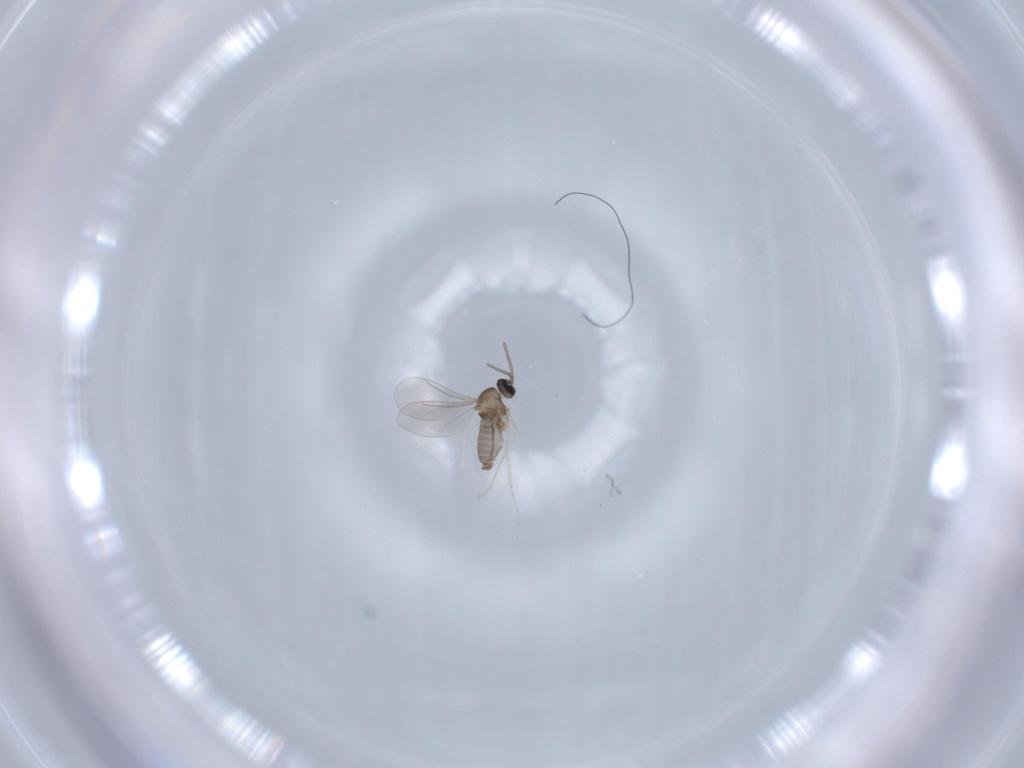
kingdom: Animalia
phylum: Arthropoda
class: Insecta
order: Diptera
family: Cecidomyiidae
